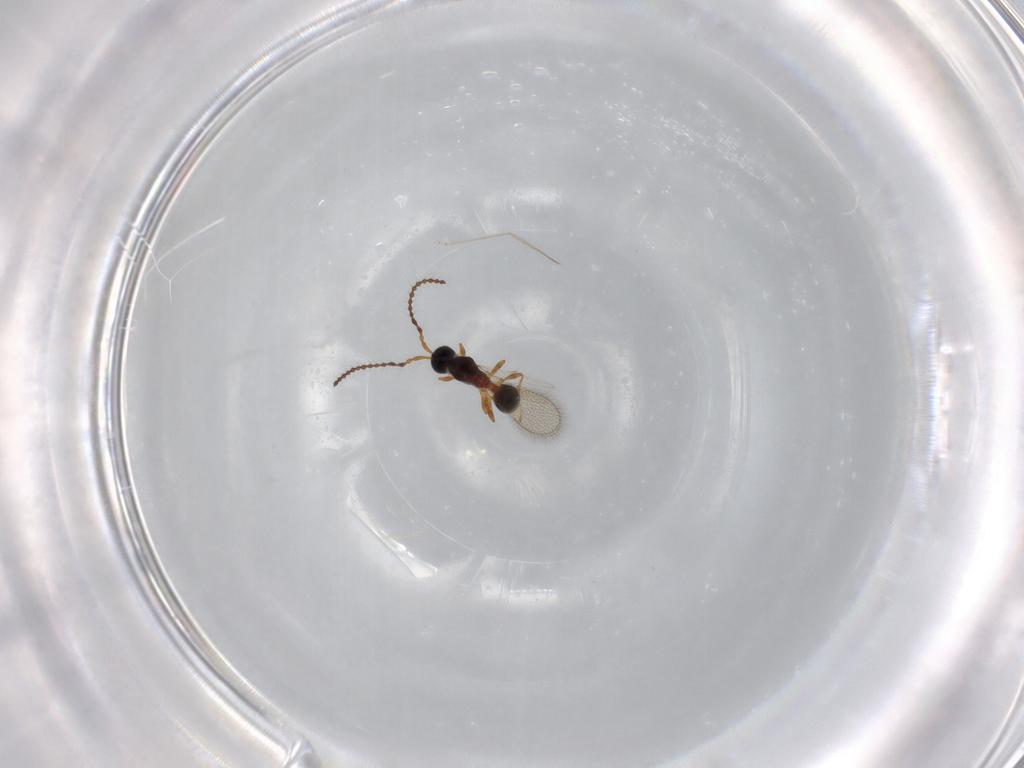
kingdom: Animalia
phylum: Arthropoda
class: Insecta
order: Hymenoptera
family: Diapriidae
